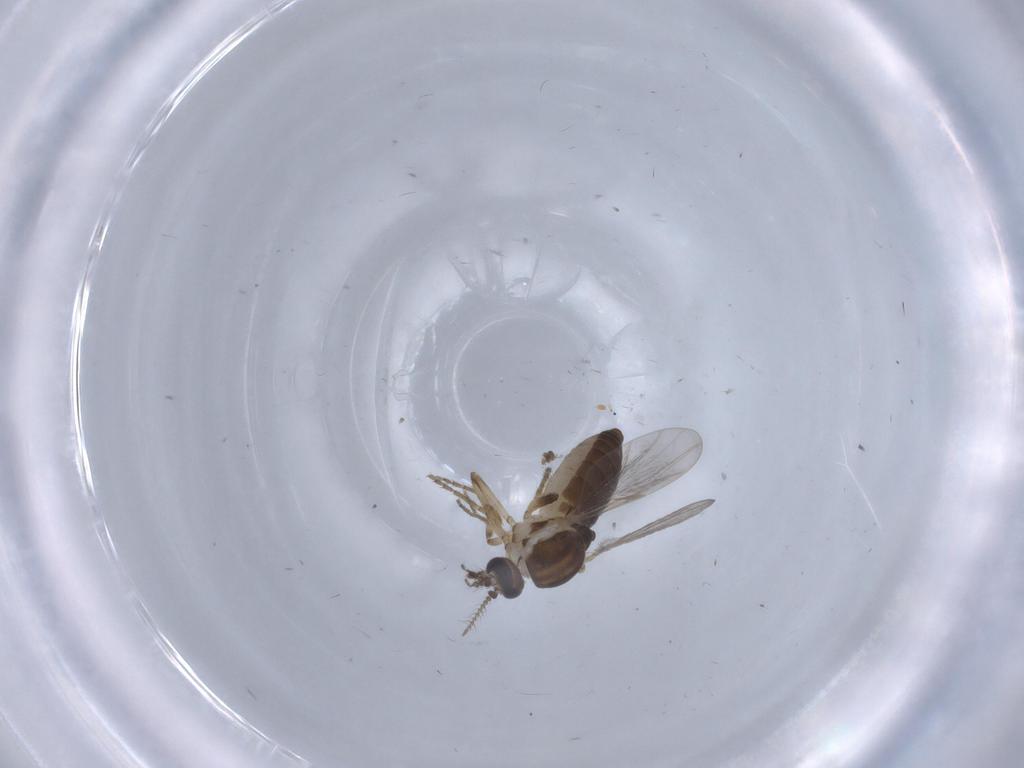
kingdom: Animalia
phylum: Arthropoda
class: Insecta
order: Diptera
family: Ceratopogonidae
